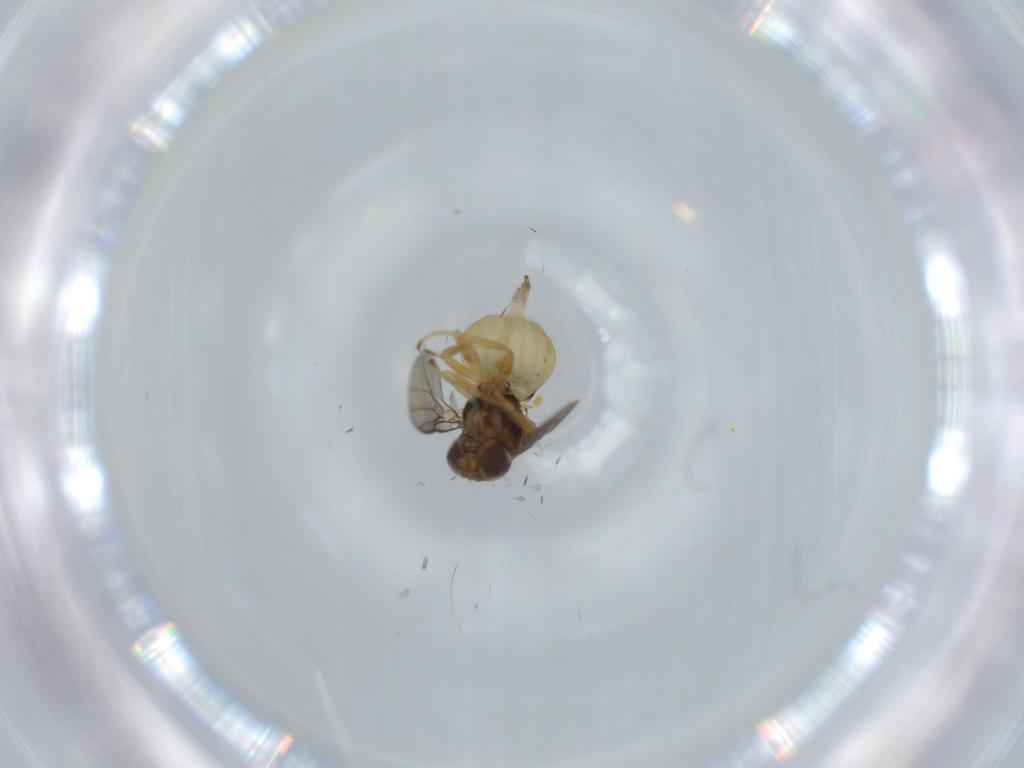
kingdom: Animalia
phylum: Arthropoda
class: Insecta
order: Diptera
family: Chloropidae
